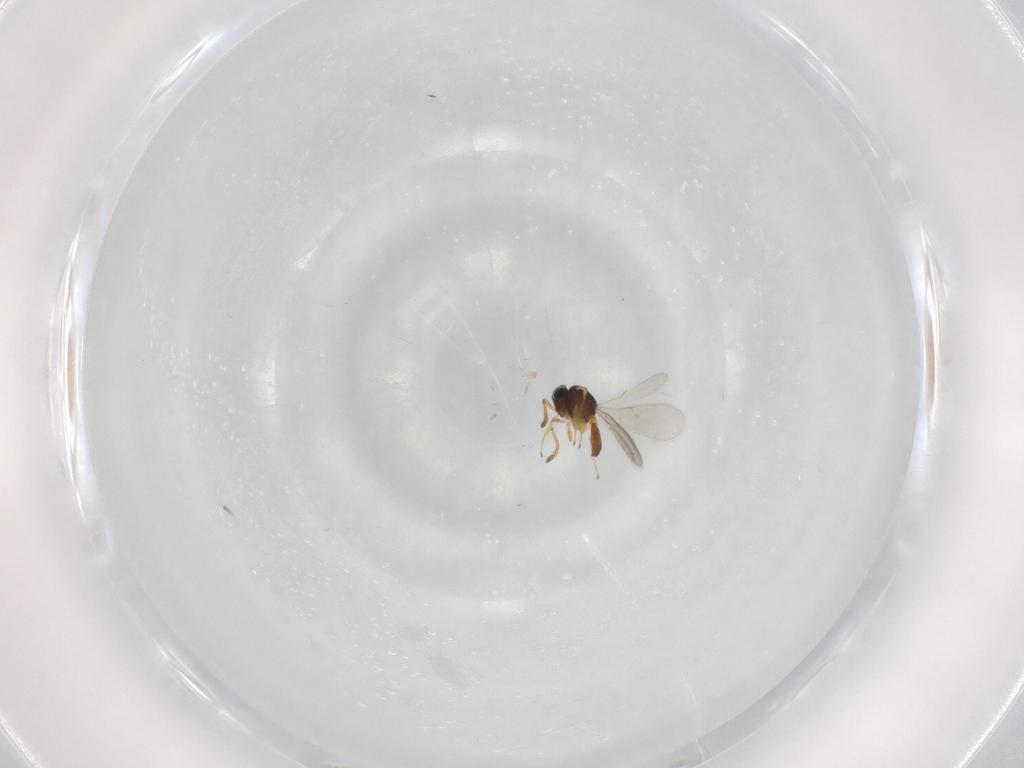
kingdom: Animalia
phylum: Arthropoda
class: Insecta
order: Hymenoptera
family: Scelionidae
